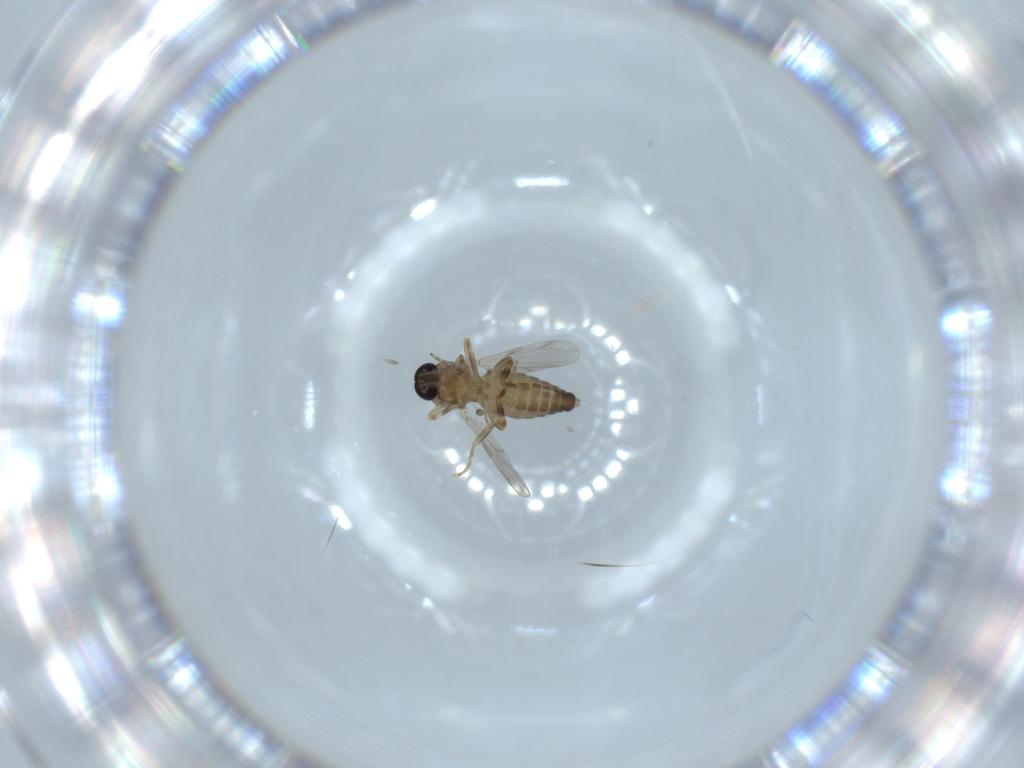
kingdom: Animalia
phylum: Arthropoda
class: Insecta
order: Diptera
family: Ceratopogonidae
